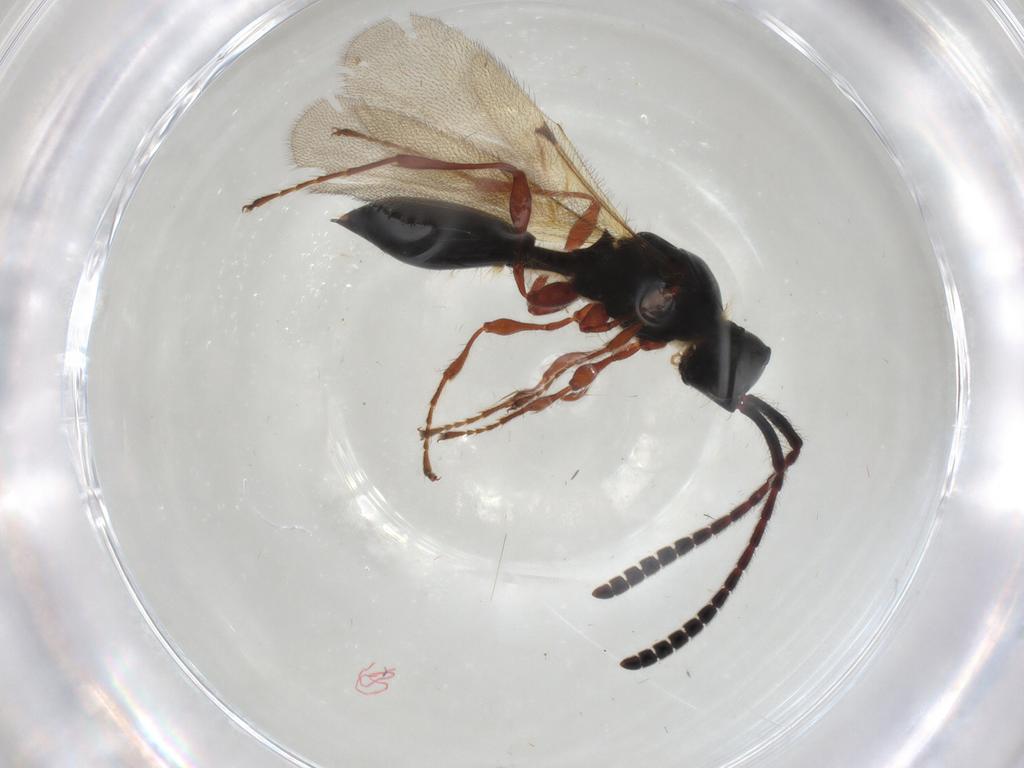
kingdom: Animalia
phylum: Arthropoda
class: Insecta
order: Hymenoptera
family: Diapriidae
